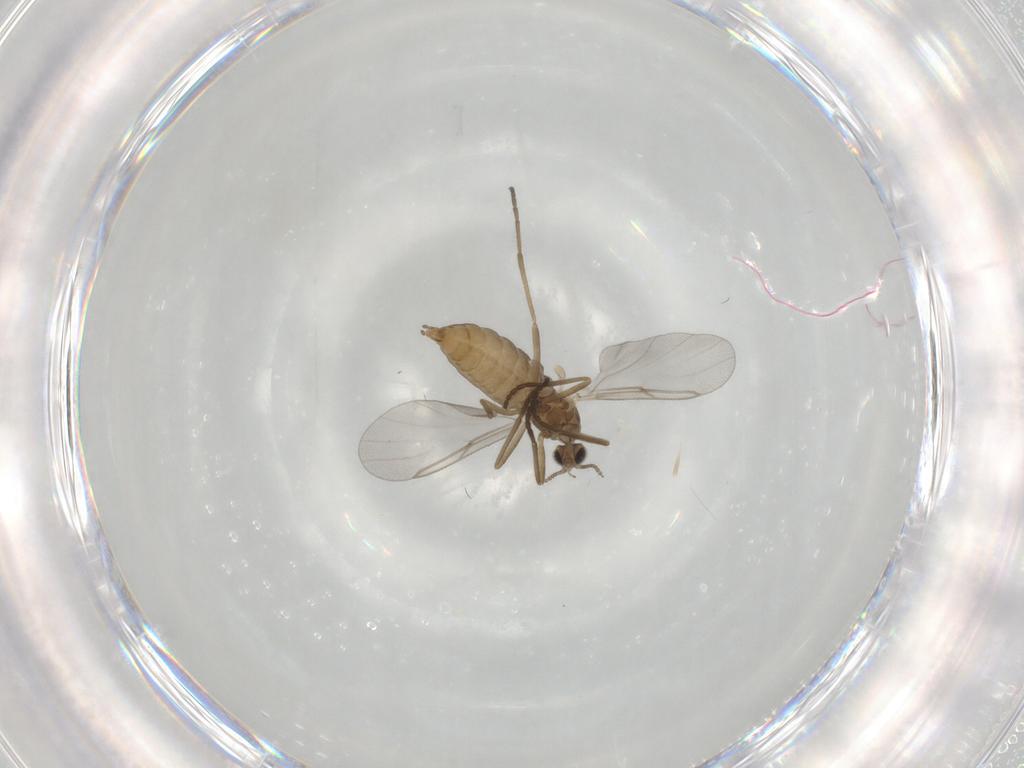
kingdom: Animalia
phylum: Arthropoda
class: Insecta
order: Diptera
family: Cecidomyiidae
